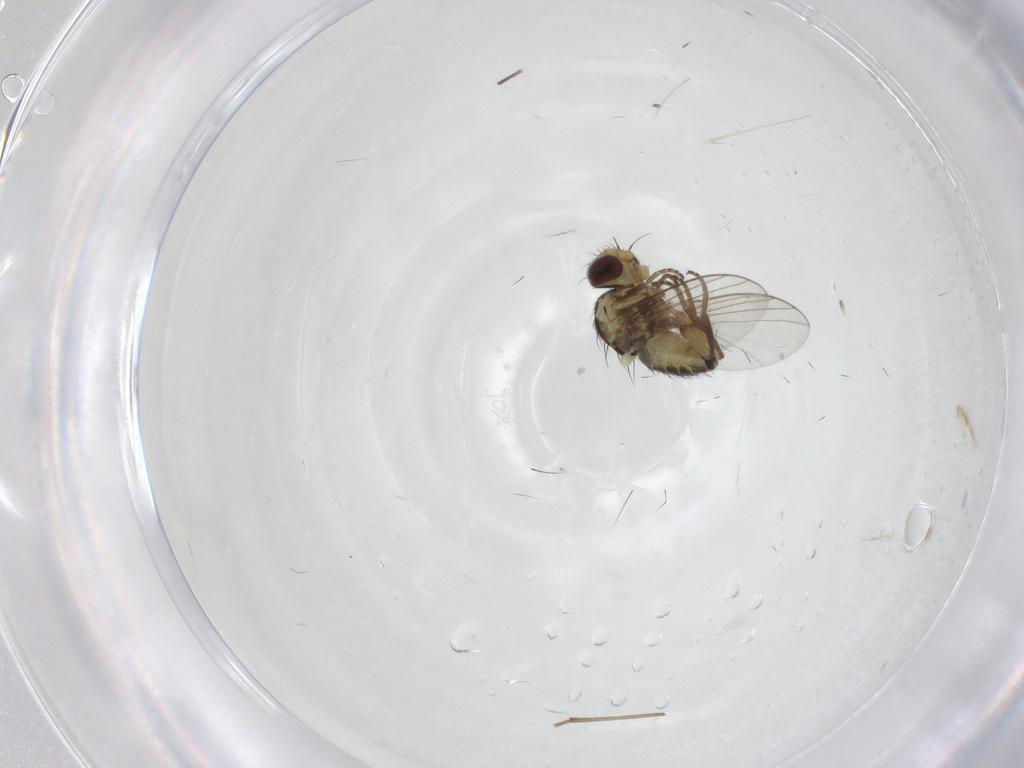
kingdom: Animalia
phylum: Arthropoda
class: Insecta
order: Diptera
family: Agromyzidae
